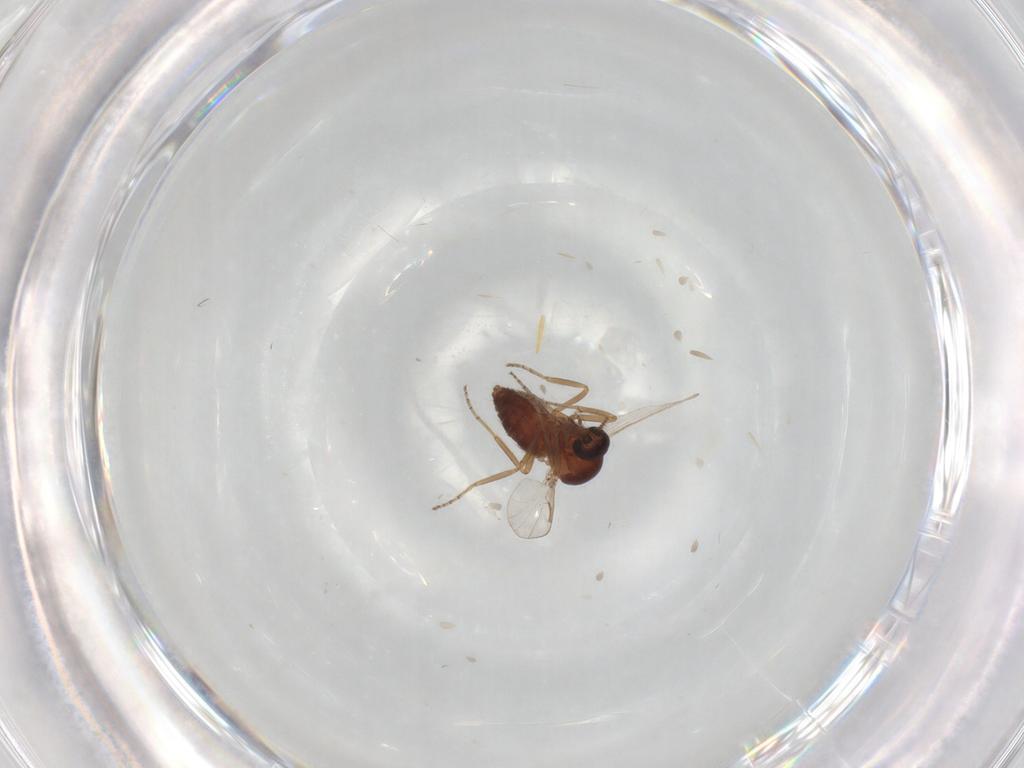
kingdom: Animalia
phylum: Arthropoda
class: Insecta
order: Diptera
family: Ceratopogonidae
